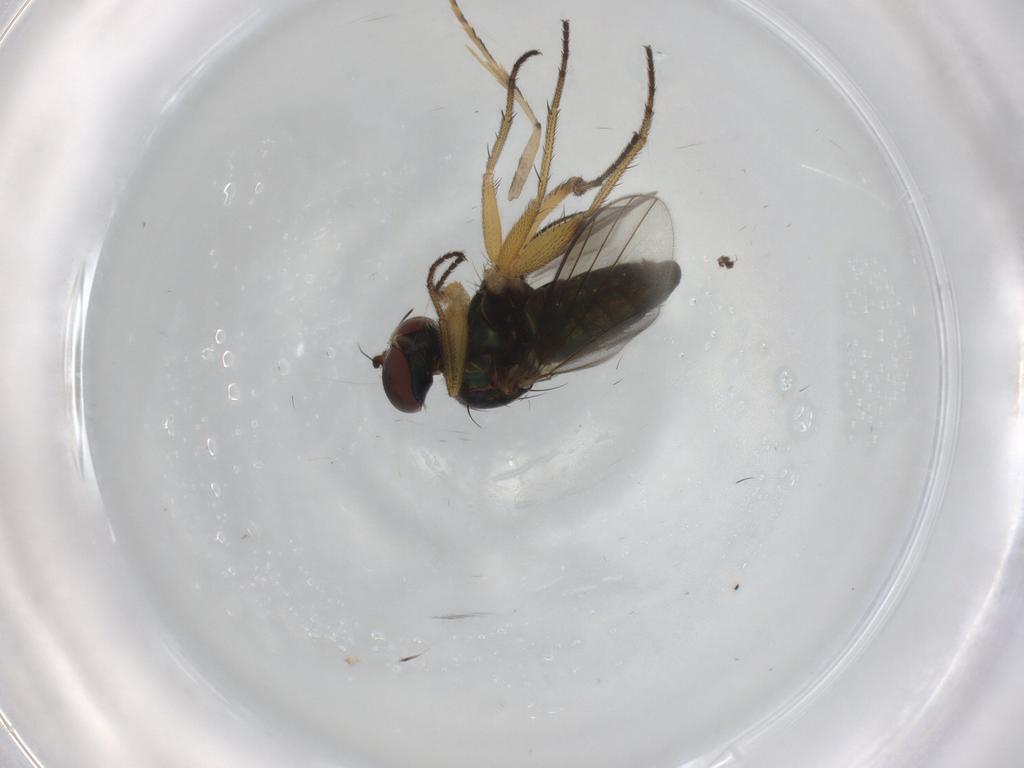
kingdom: Animalia
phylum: Arthropoda
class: Insecta
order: Diptera
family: Dolichopodidae
